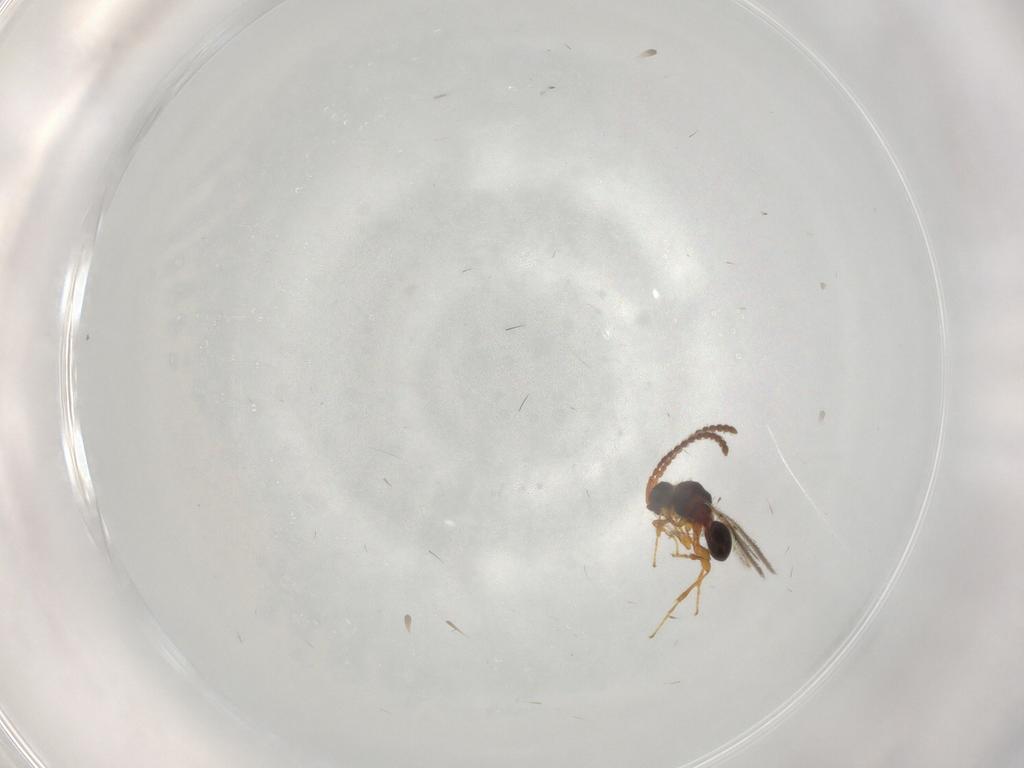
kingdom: Animalia
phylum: Arthropoda
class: Insecta
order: Hymenoptera
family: Diapriidae
